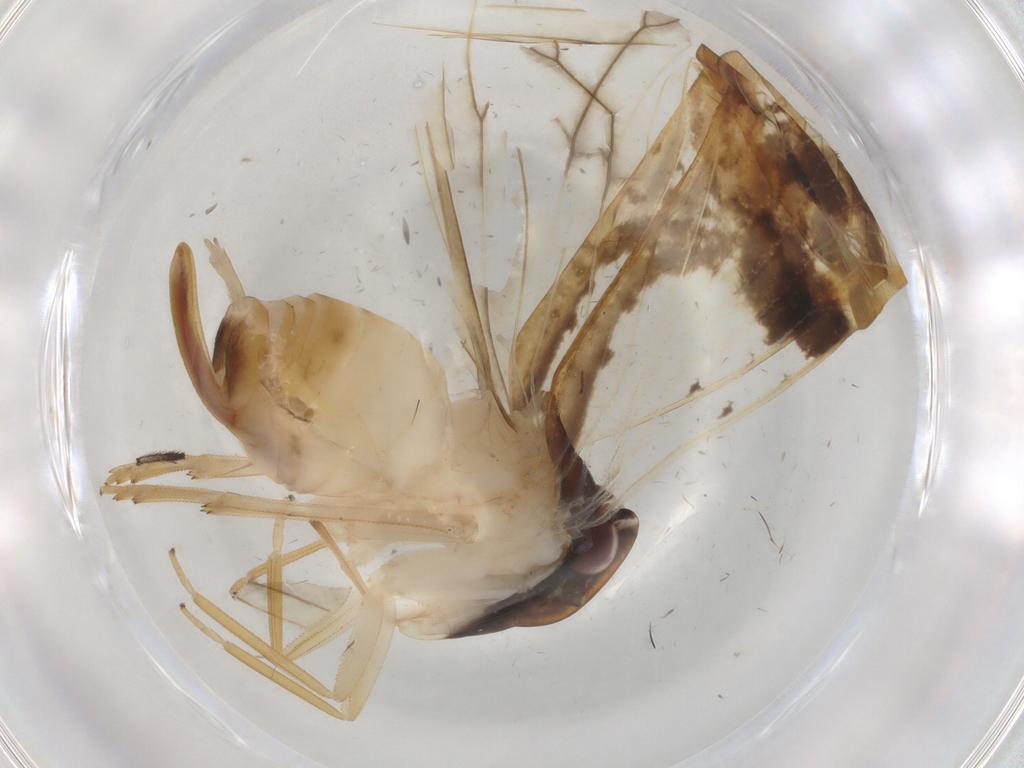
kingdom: Animalia
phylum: Arthropoda
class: Insecta
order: Hemiptera
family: Cixiidae
